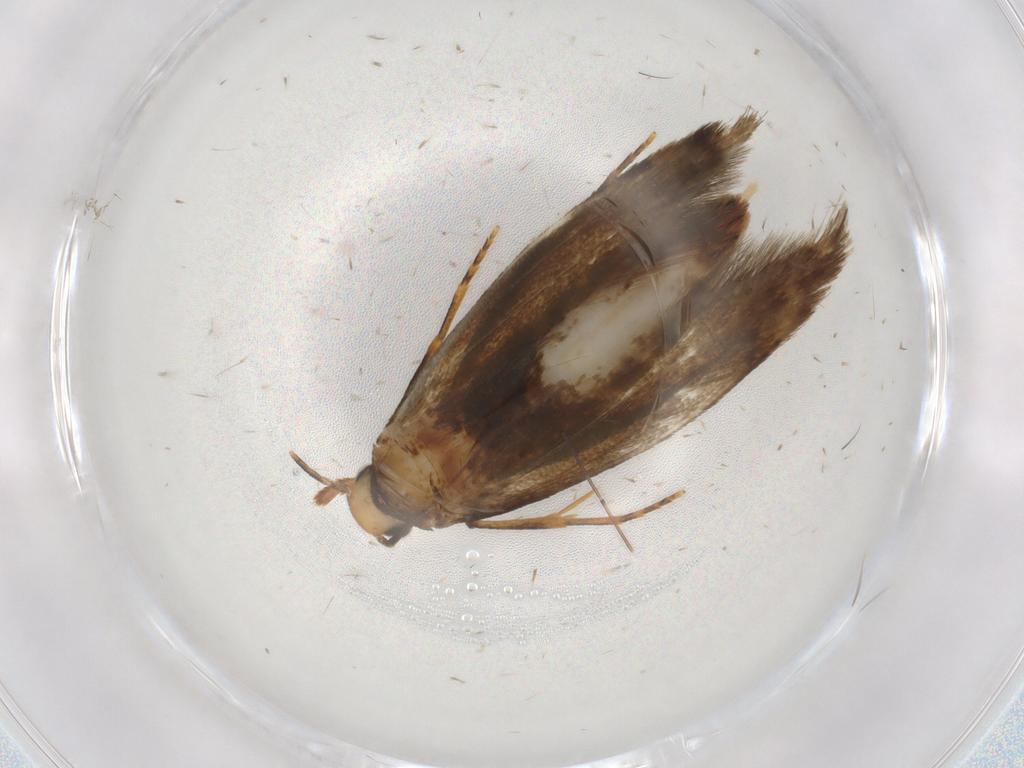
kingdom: Animalia
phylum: Arthropoda
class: Insecta
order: Lepidoptera
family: Tineidae
